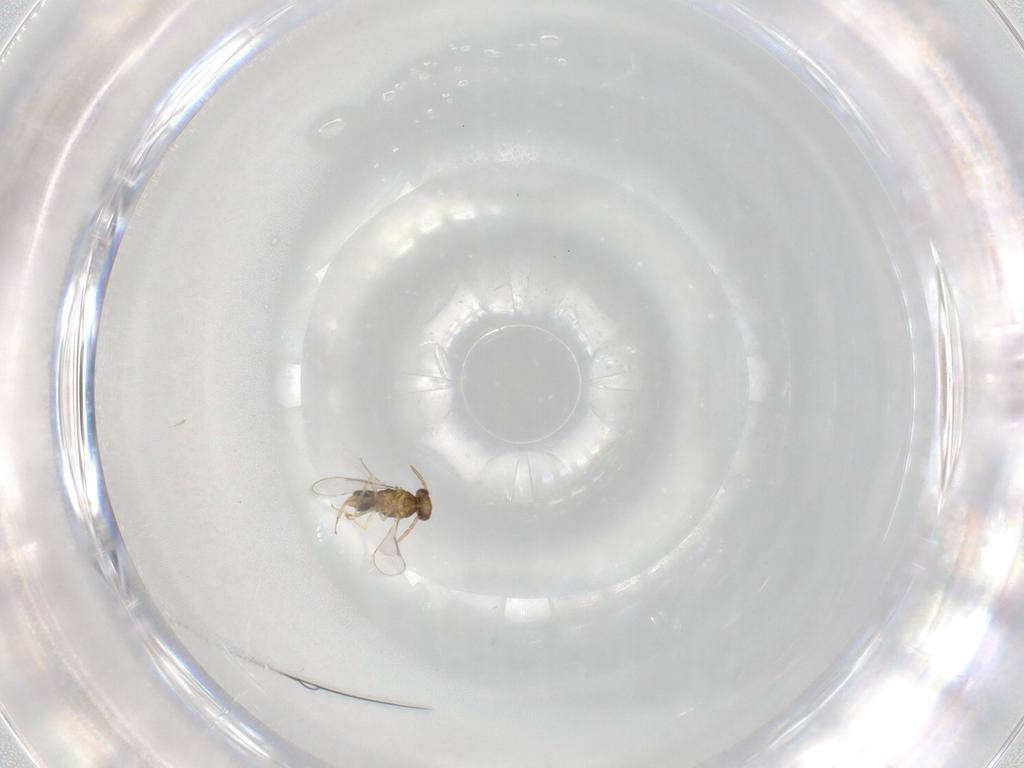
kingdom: Animalia
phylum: Arthropoda
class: Insecta
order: Hymenoptera
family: Aphelinidae
